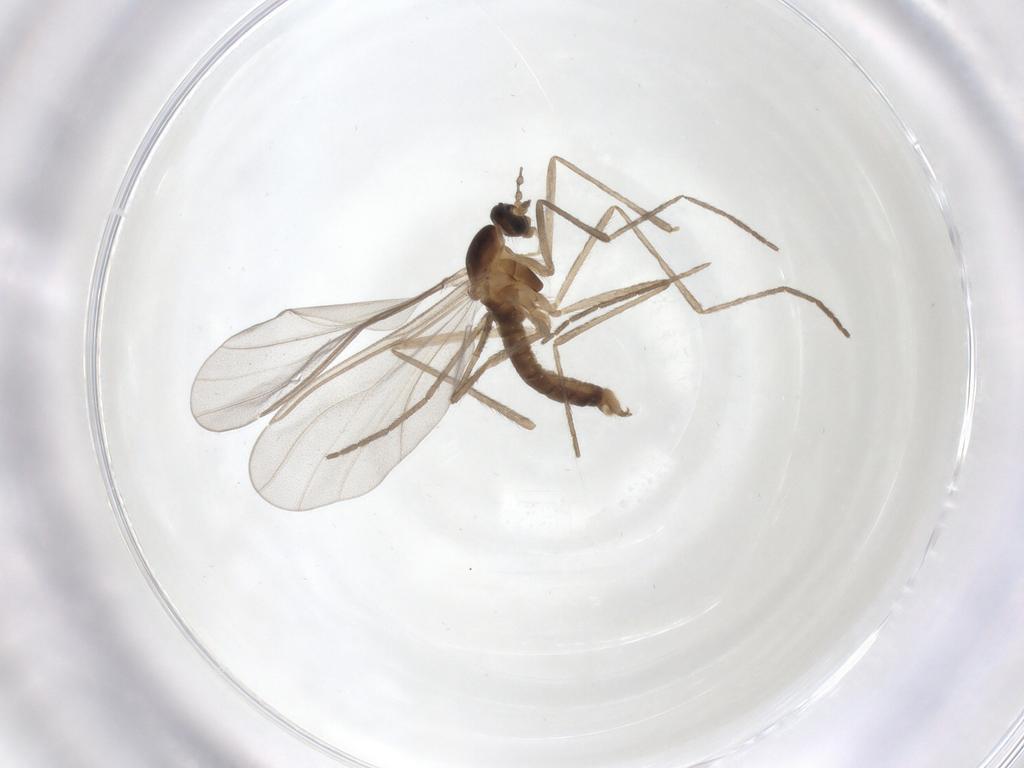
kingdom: Animalia
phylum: Arthropoda
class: Insecta
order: Diptera
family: Cecidomyiidae
